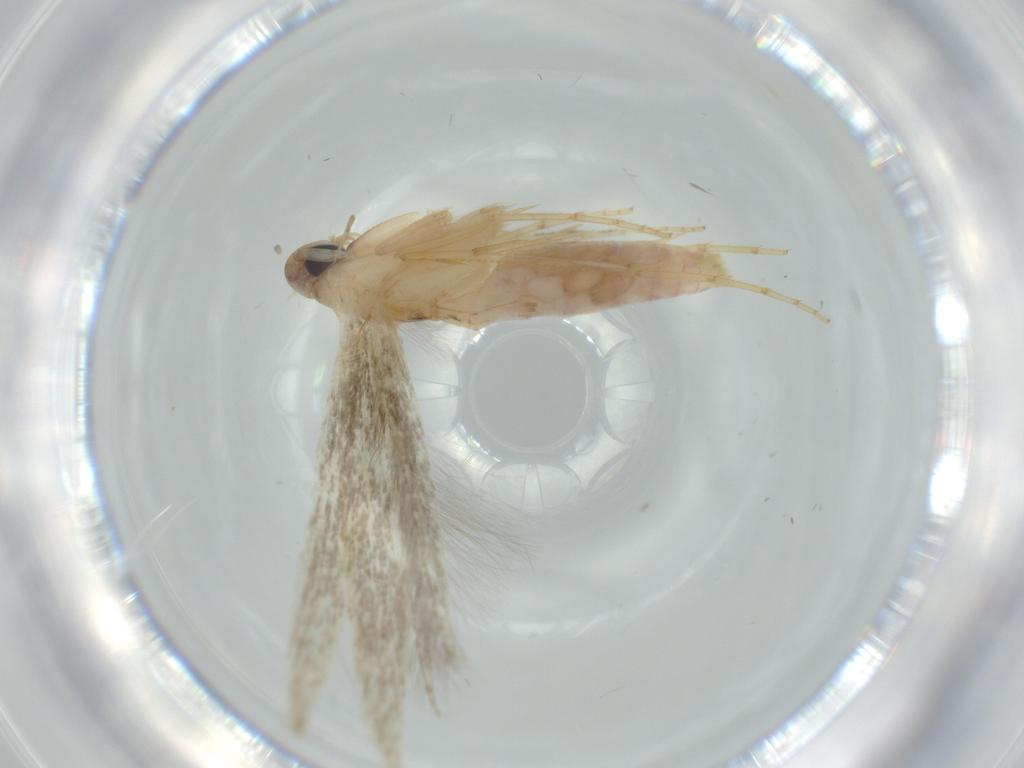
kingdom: Animalia
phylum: Arthropoda
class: Insecta
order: Lepidoptera
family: Heliodinidae
